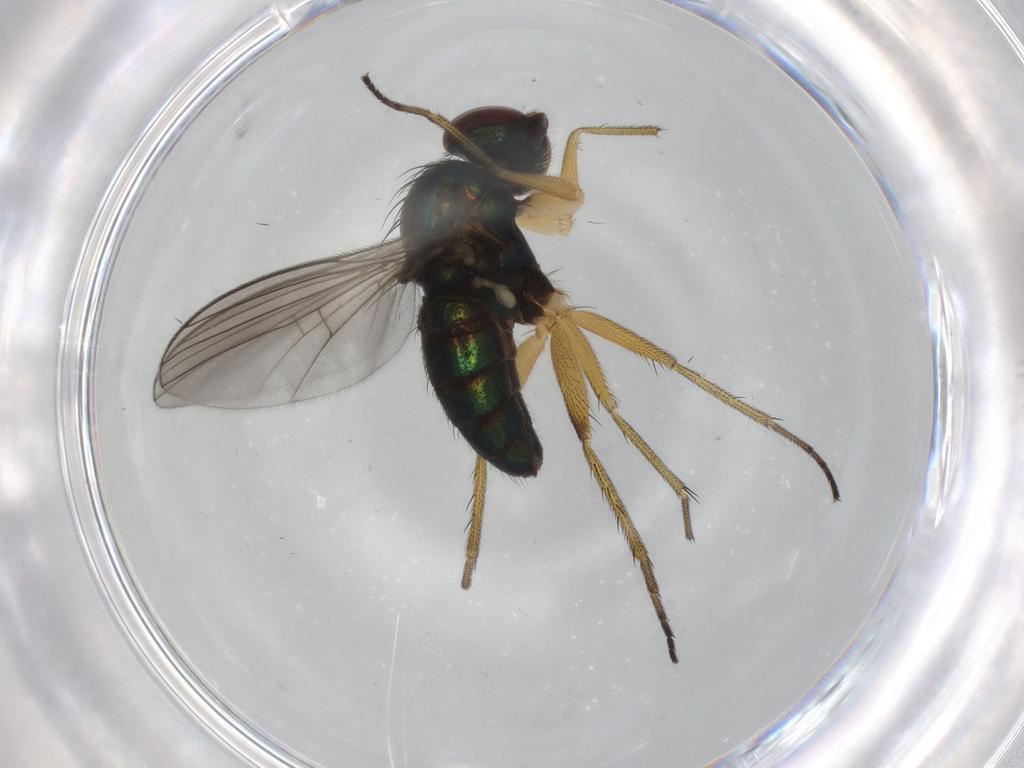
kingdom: Animalia
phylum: Arthropoda
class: Insecta
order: Diptera
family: Dolichopodidae
